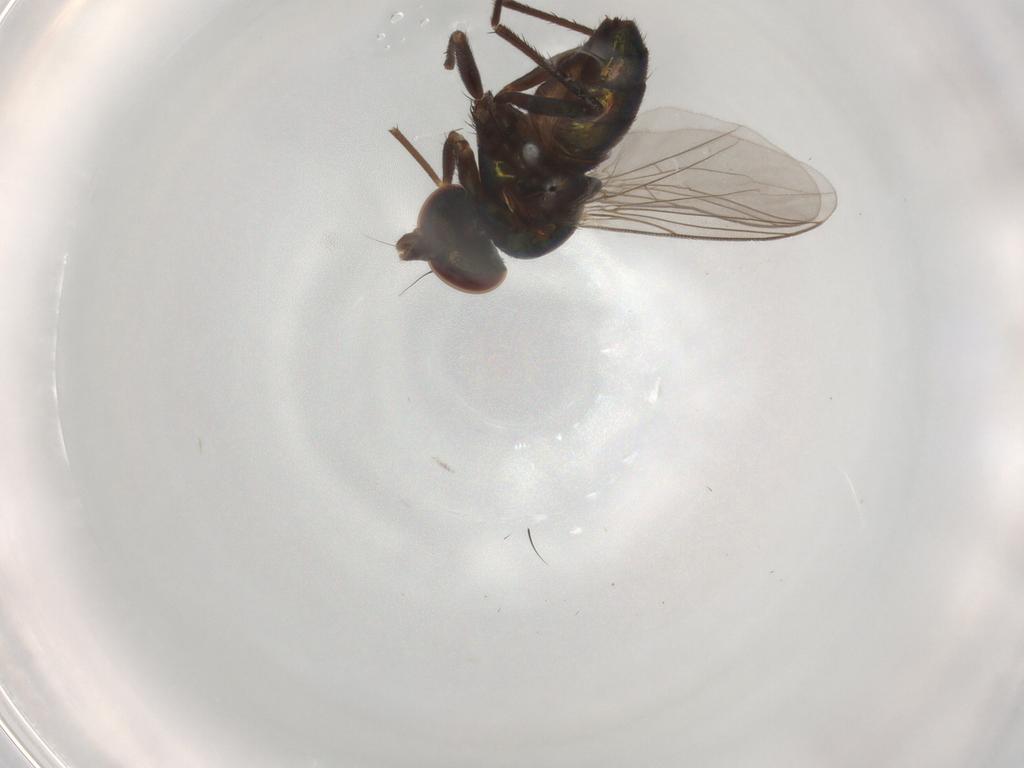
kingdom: Animalia
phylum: Arthropoda
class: Insecta
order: Diptera
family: Dolichopodidae
